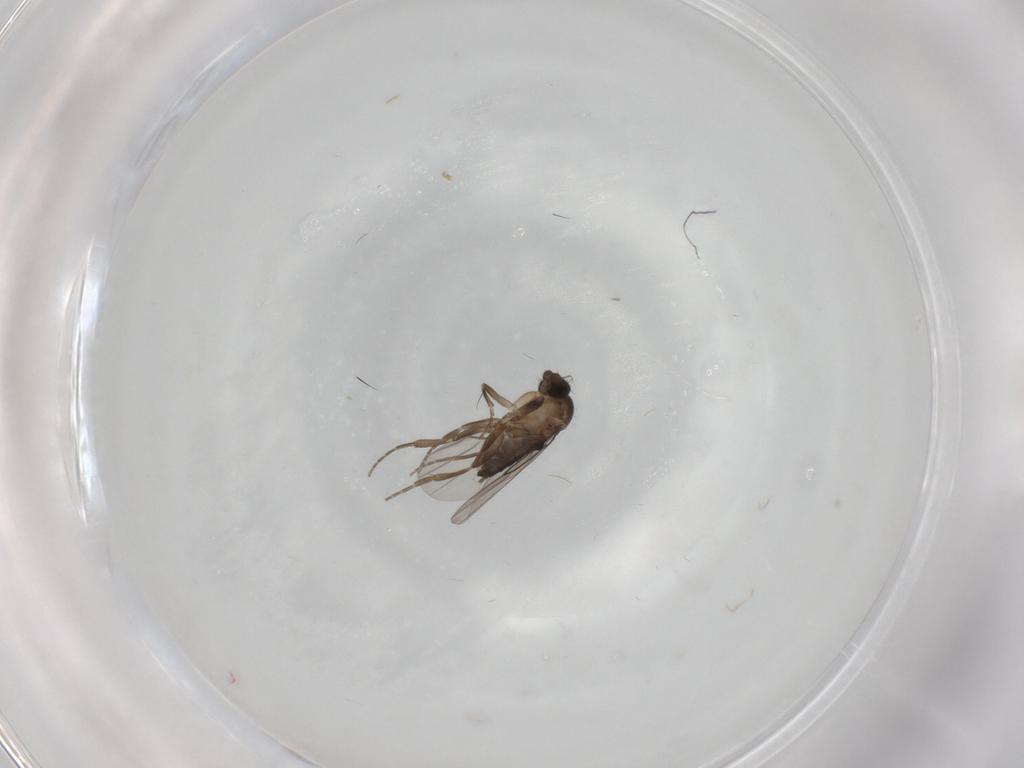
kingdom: Animalia
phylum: Arthropoda
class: Insecta
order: Diptera
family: Phoridae
